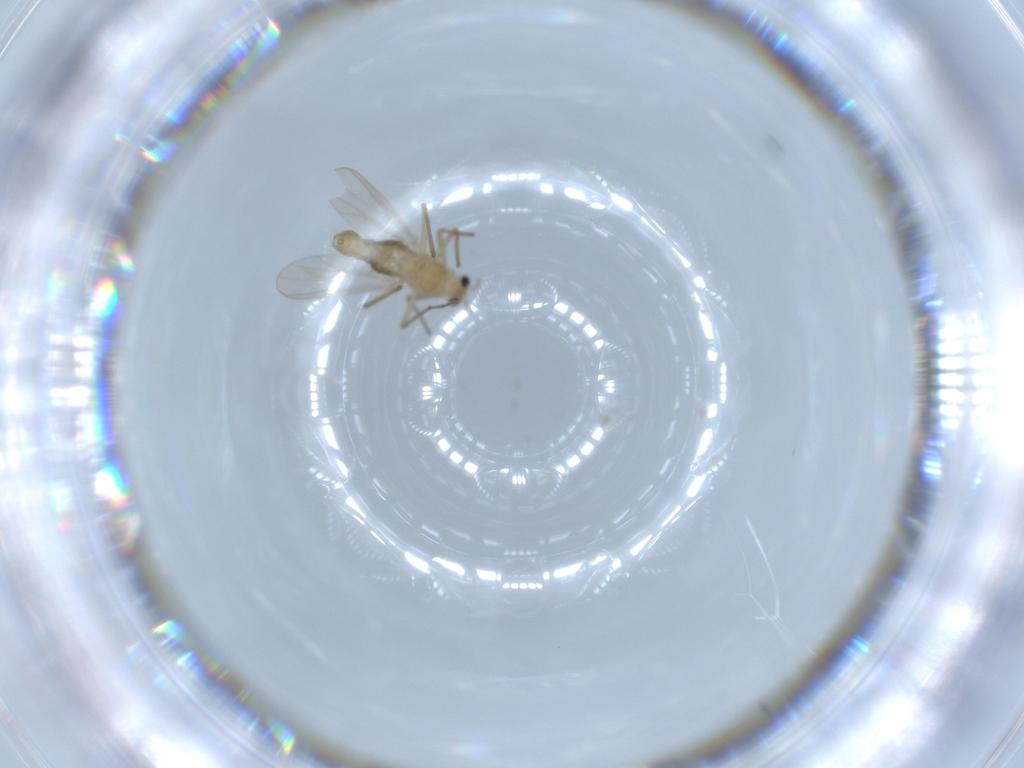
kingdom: Animalia
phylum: Arthropoda
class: Insecta
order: Diptera
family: Chironomidae
